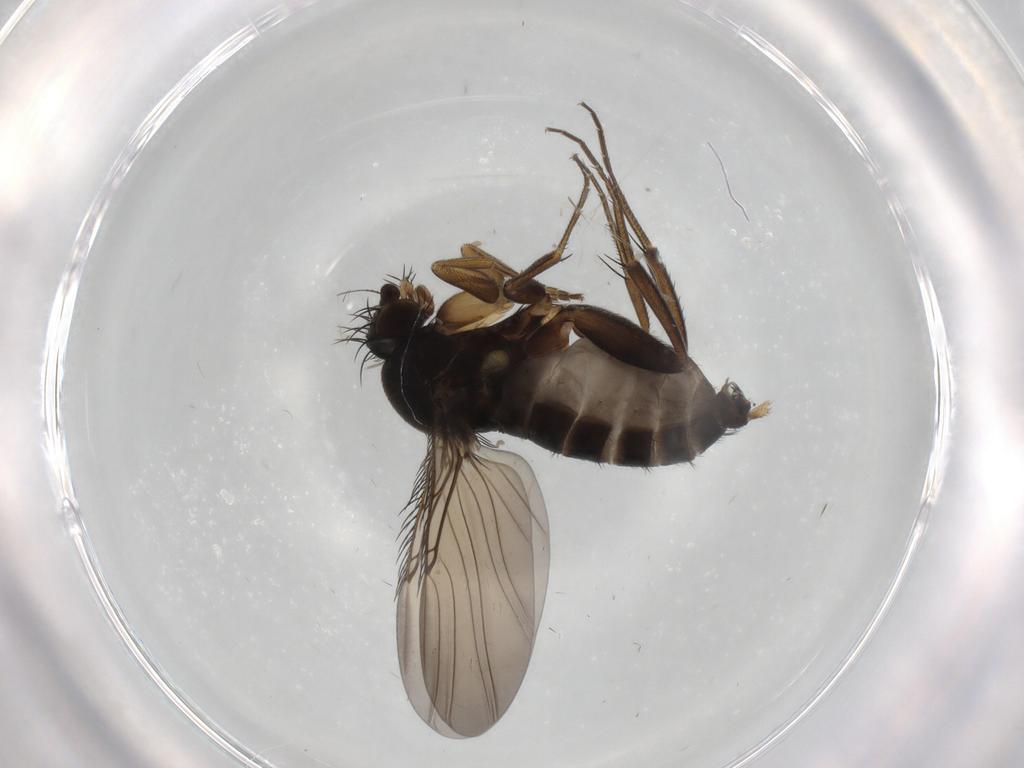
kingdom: Animalia
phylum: Arthropoda
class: Insecta
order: Diptera
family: Phoridae
